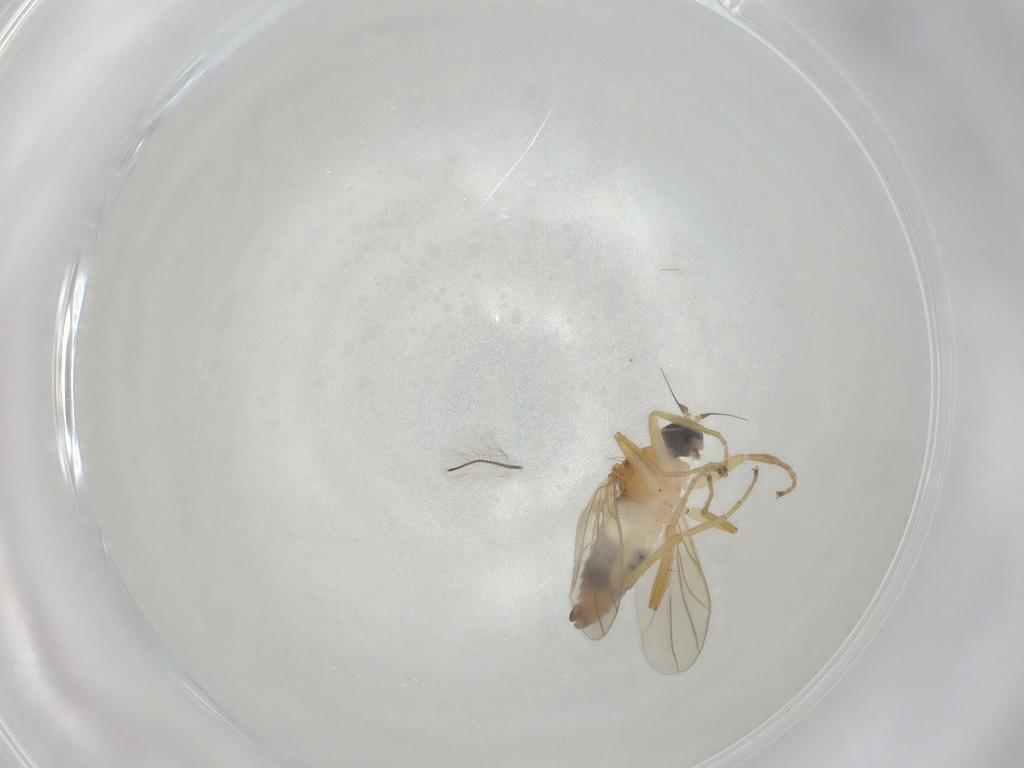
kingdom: Animalia
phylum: Arthropoda
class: Insecta
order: Diptera
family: Hybotidae
